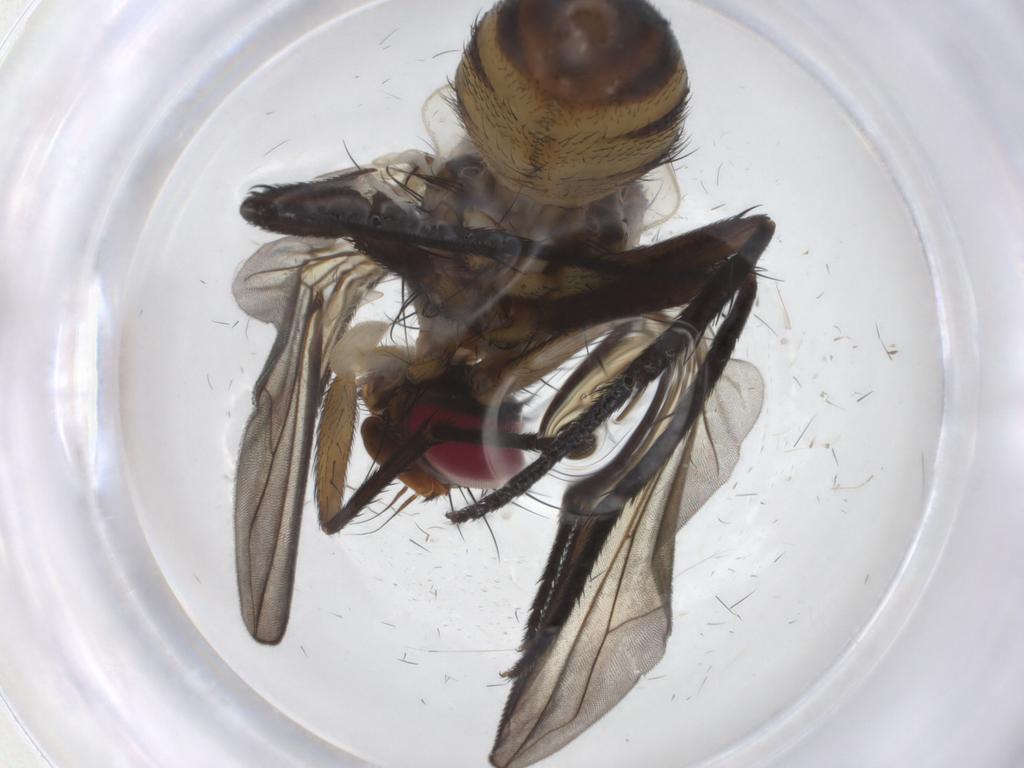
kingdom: Animalia
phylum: Arthropoda
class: Insecta
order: Diptera
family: Tachinidae
